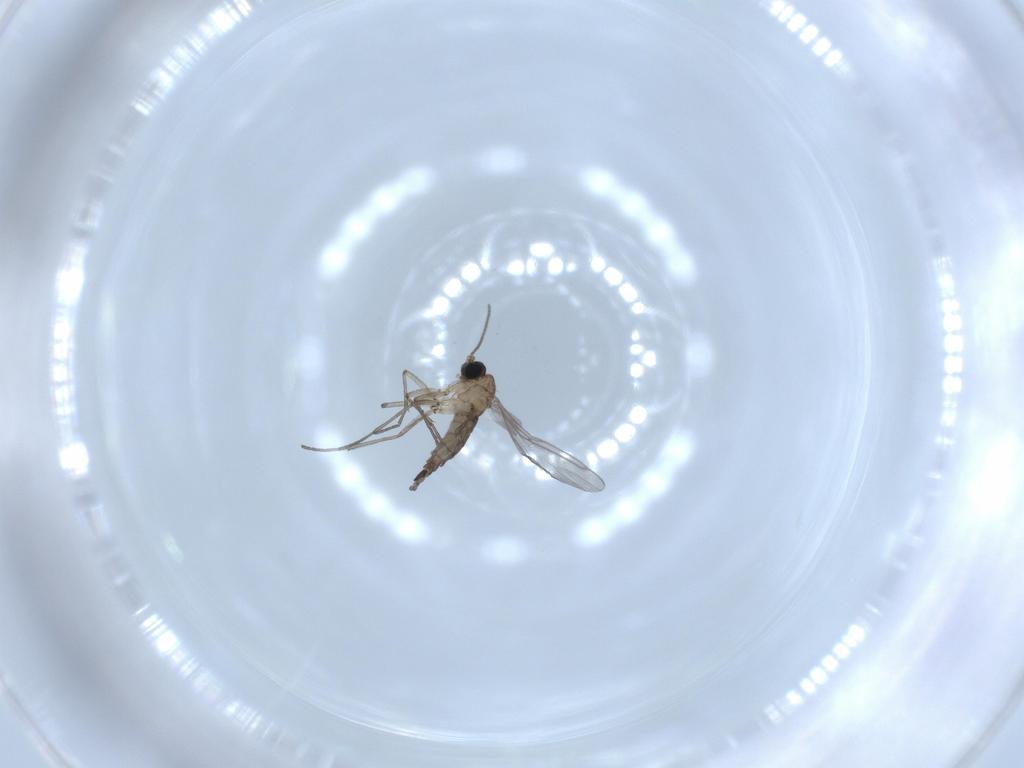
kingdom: Animalia
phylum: Arthropoda
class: Insecta
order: Diptera
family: Sciaridae
